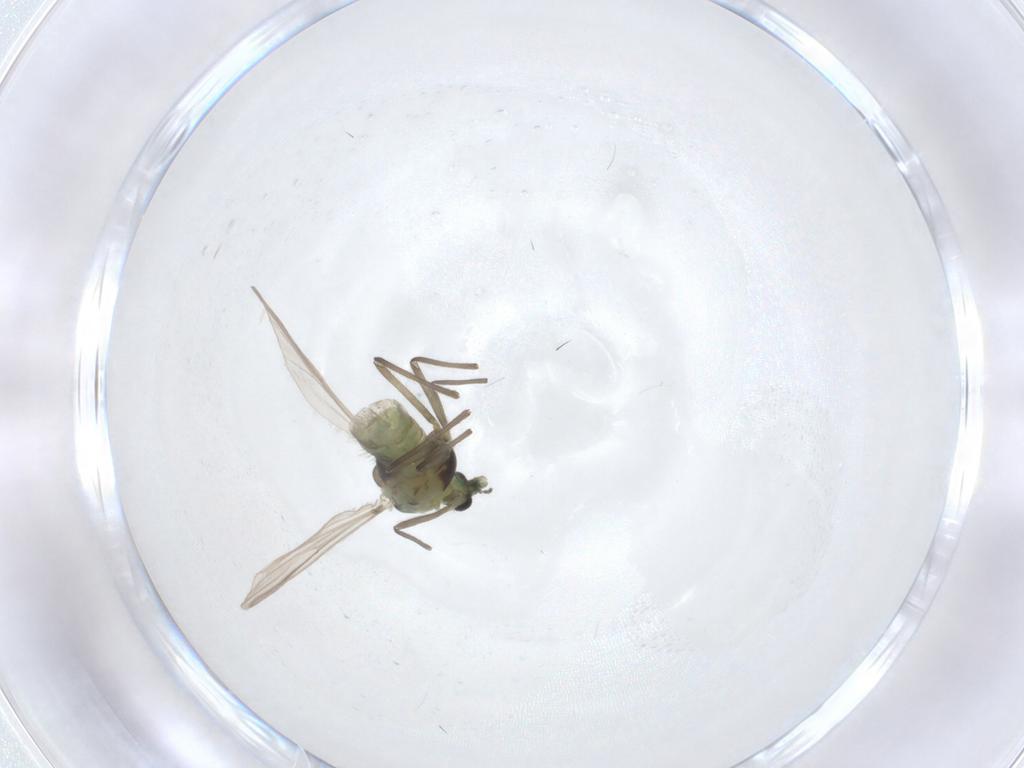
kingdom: Animalia
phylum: Arthropoda
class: Insecta
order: Diptera
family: Chironomidae
